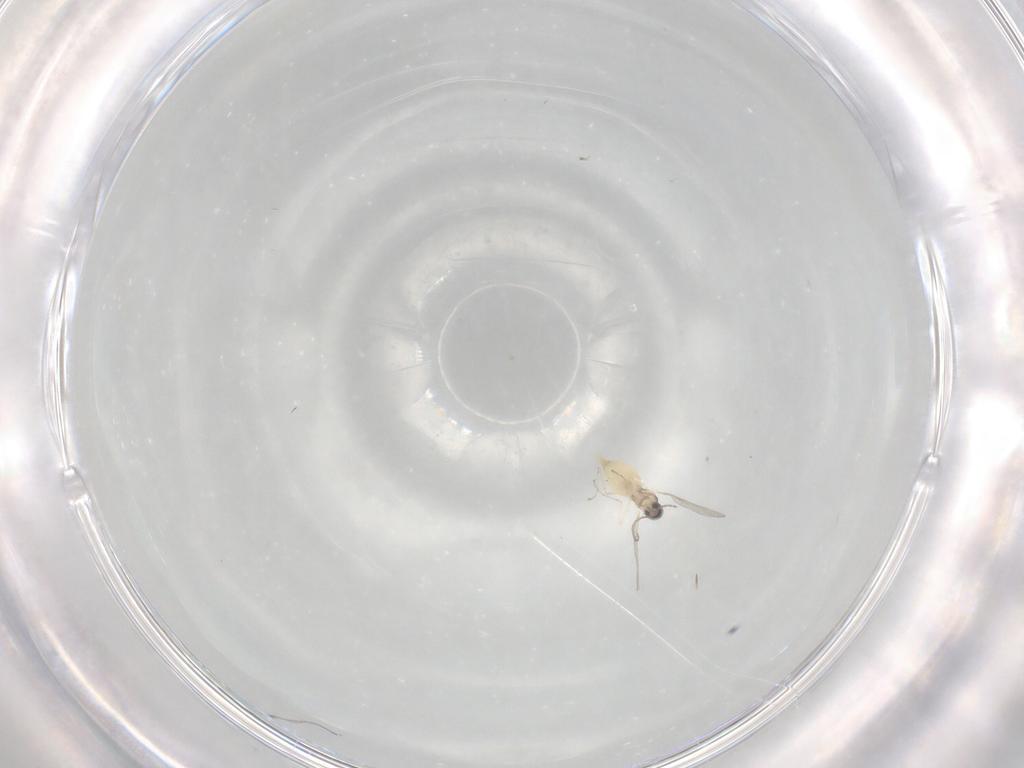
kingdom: Animalia
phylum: Arthropoda
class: Insecta
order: Diptera
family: Cecidomyiidae
